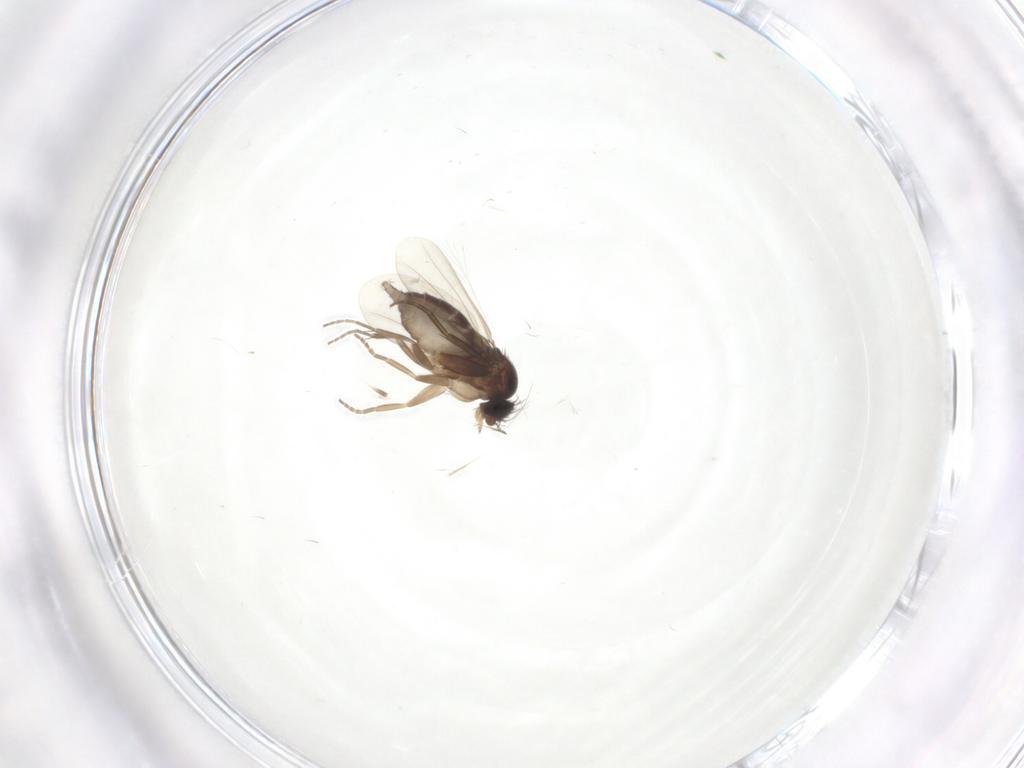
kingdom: Animalia
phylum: Arthropoda
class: Insecta
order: Diptera
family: Phoridae
